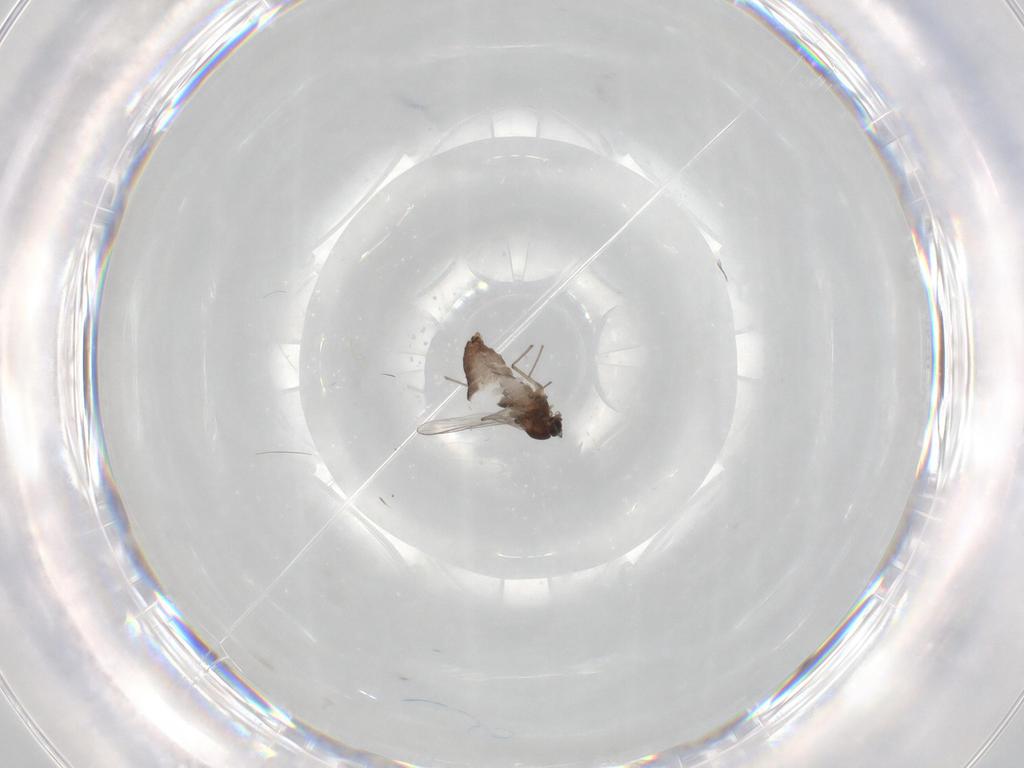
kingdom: Animalia
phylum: Arthropoda
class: Insecta
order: Diptera
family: Chironomidae
